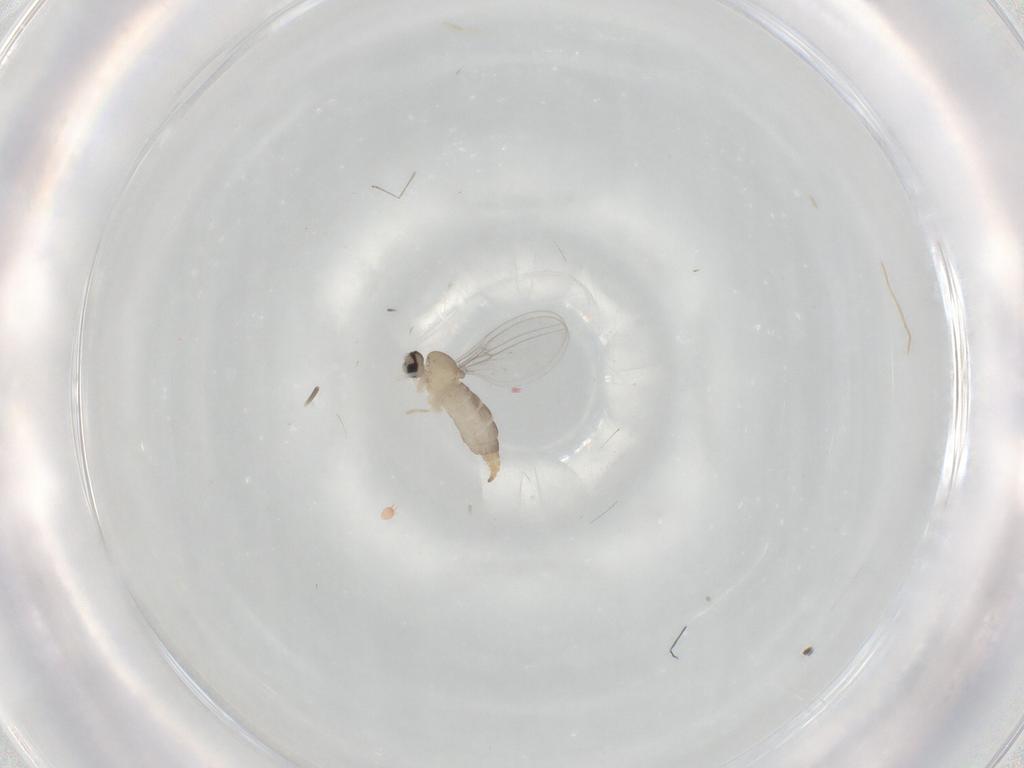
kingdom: Animalia
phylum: Arthropoda
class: Insecta
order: Diptera
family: Cecidomyiidae
